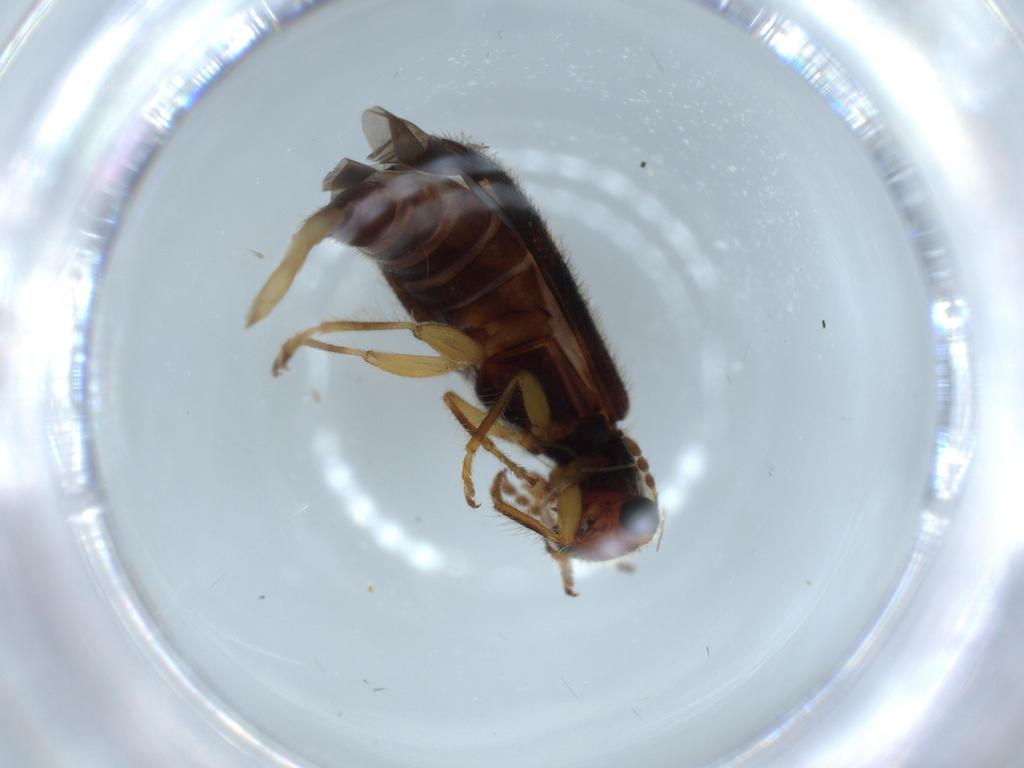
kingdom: Animalia
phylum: Arthropoda
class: Insecta
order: Coleoptera
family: Cleridae
